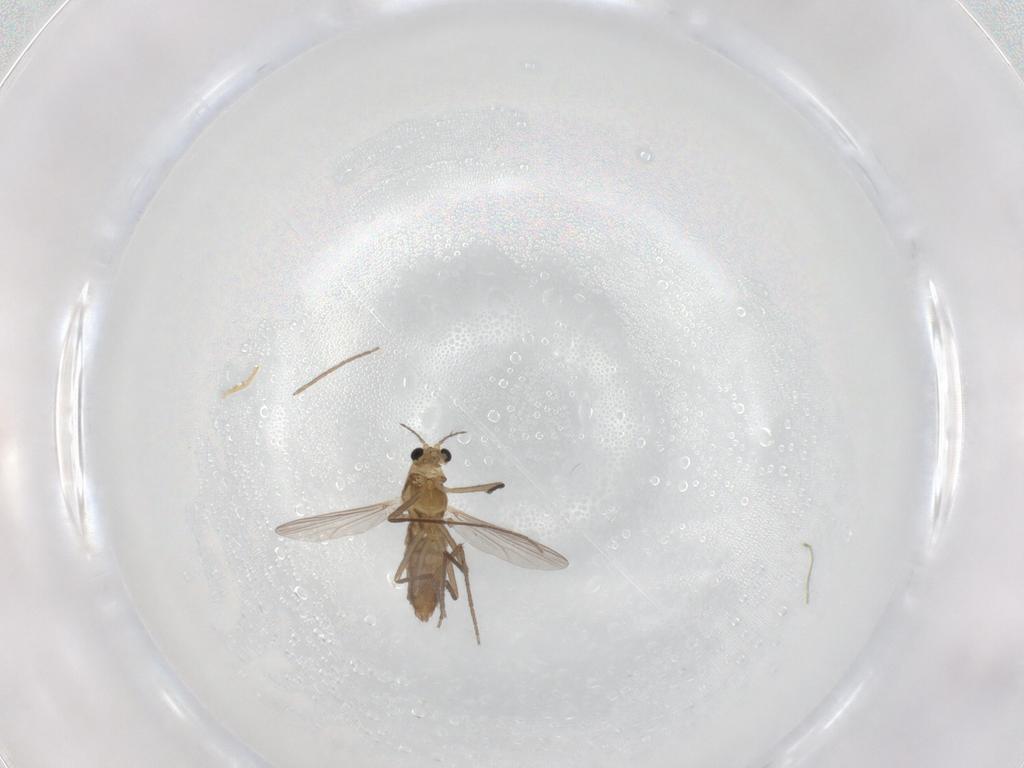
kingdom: Animalia
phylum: Arthropoda
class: Insecta
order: Diptera
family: Chironomidae
